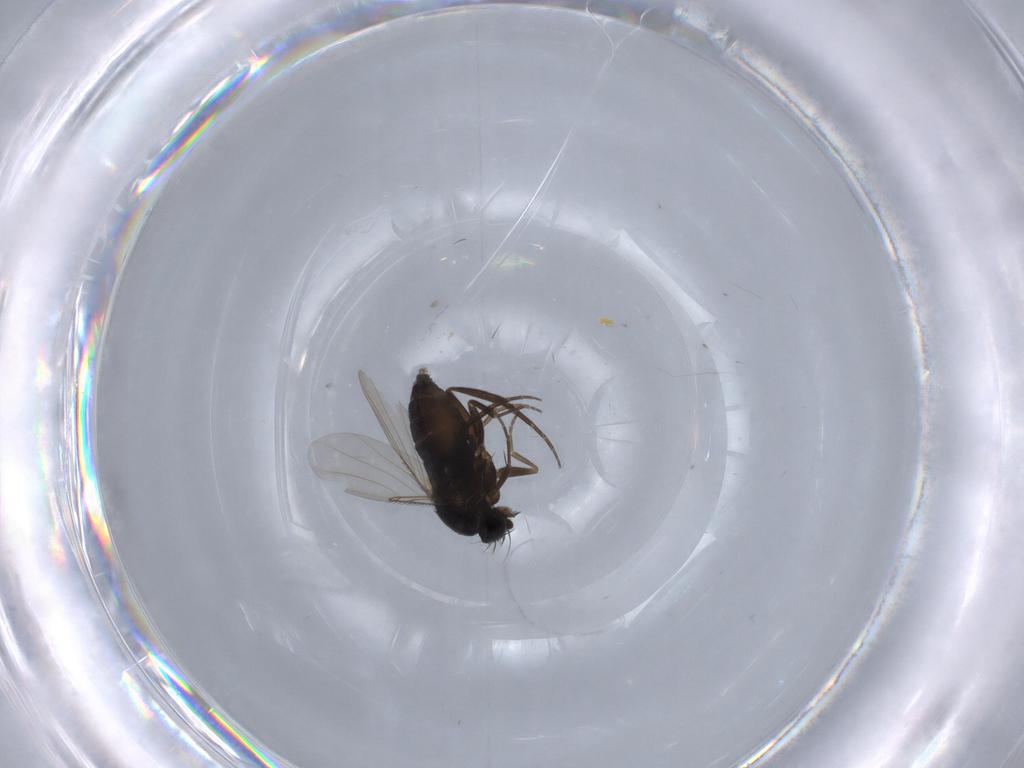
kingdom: Animalia
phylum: Arthropoda
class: Insecta
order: Diptera
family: Phoridae
